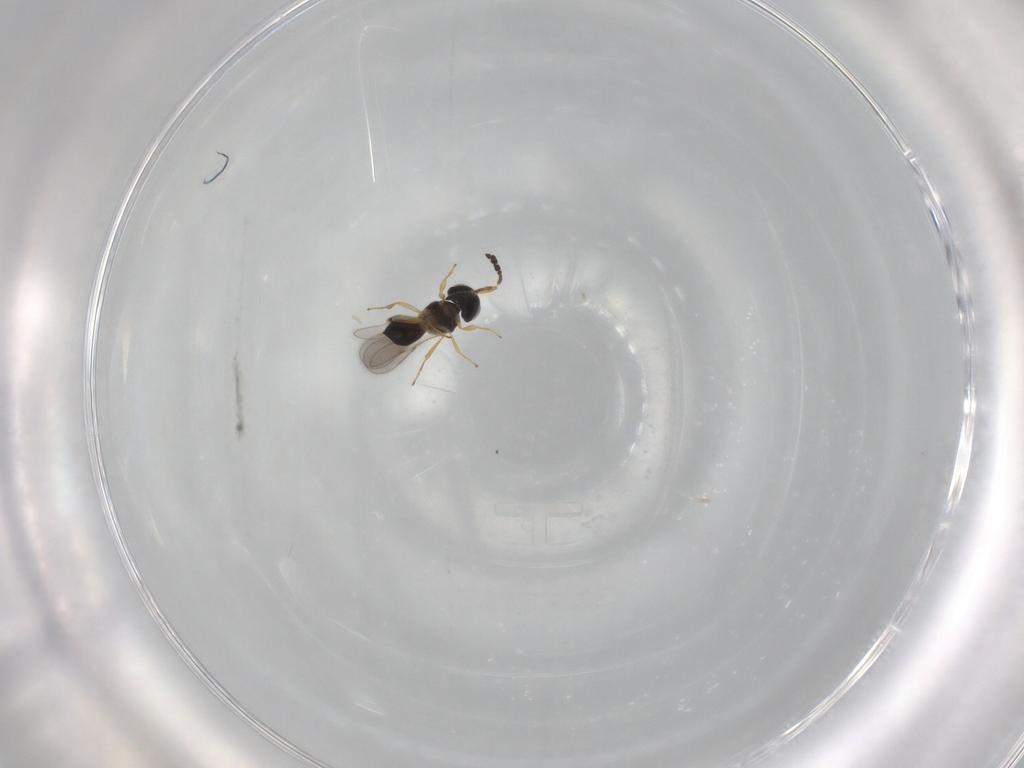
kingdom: Animalia
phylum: Arthropoda
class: Insecta
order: Hymenoptera
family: Scelionidae
